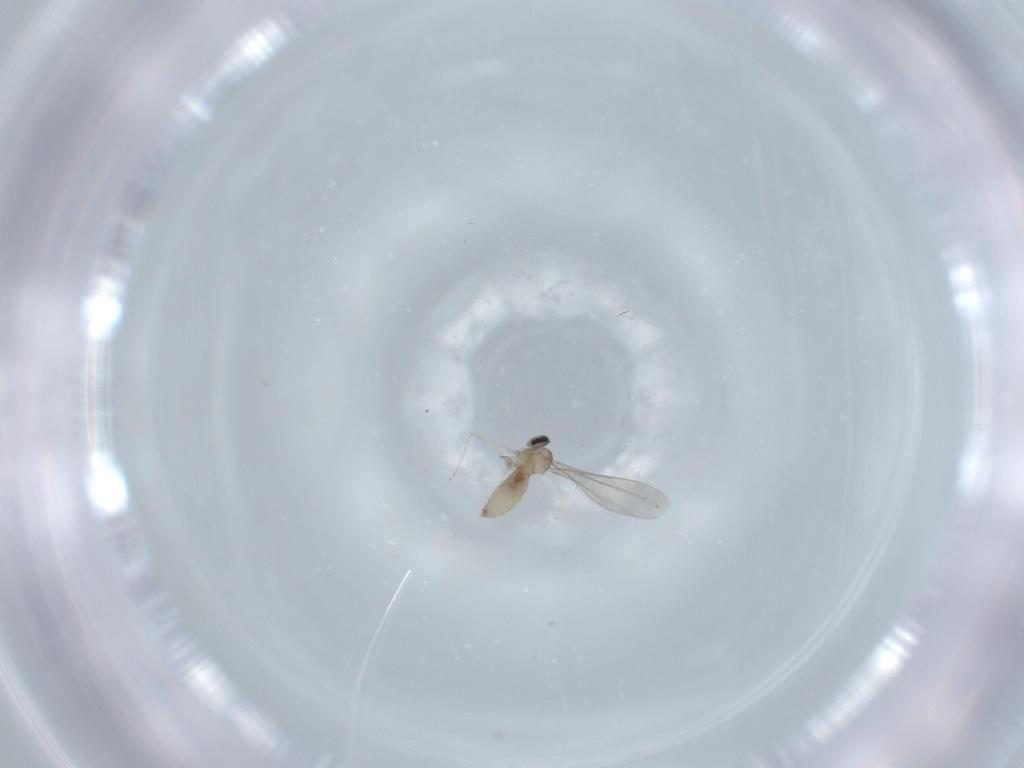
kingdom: Animalia
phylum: Arthropoda
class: Insecta
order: Diptera
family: Cecidomyiidae
